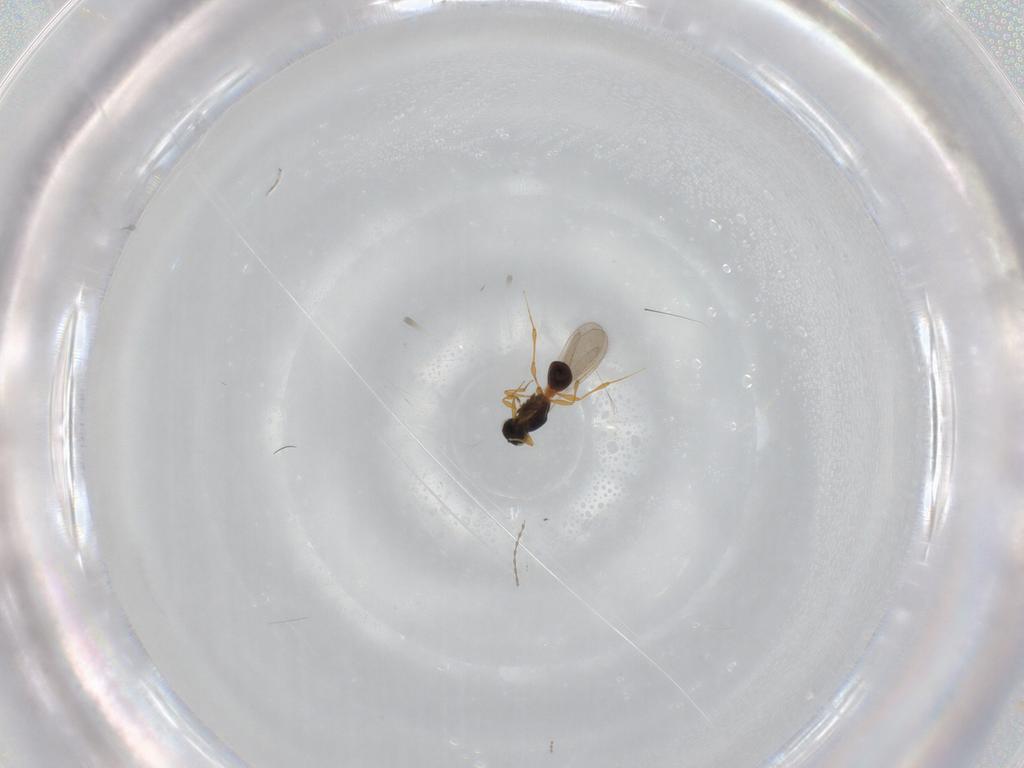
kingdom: Animalia
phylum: Arthropoda
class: Insecta
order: Hymenoptera
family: Platygastridae
